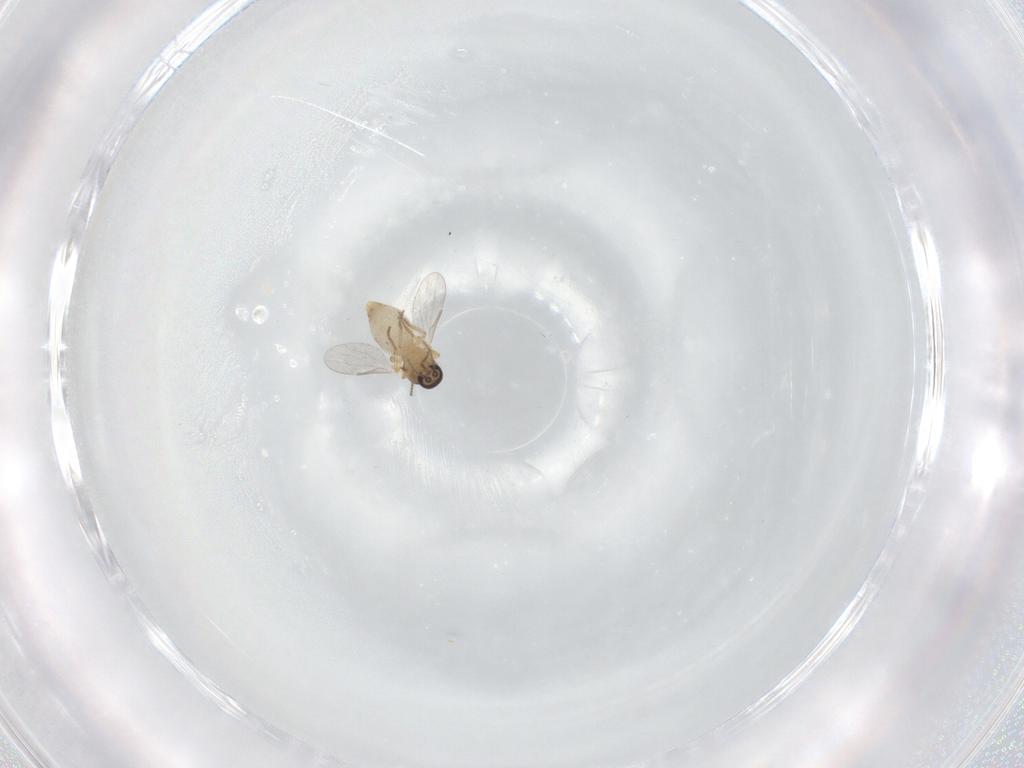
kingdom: Animalia
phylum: Arthropoda
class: Insecta
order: Diptera
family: Ceratopogonidae
